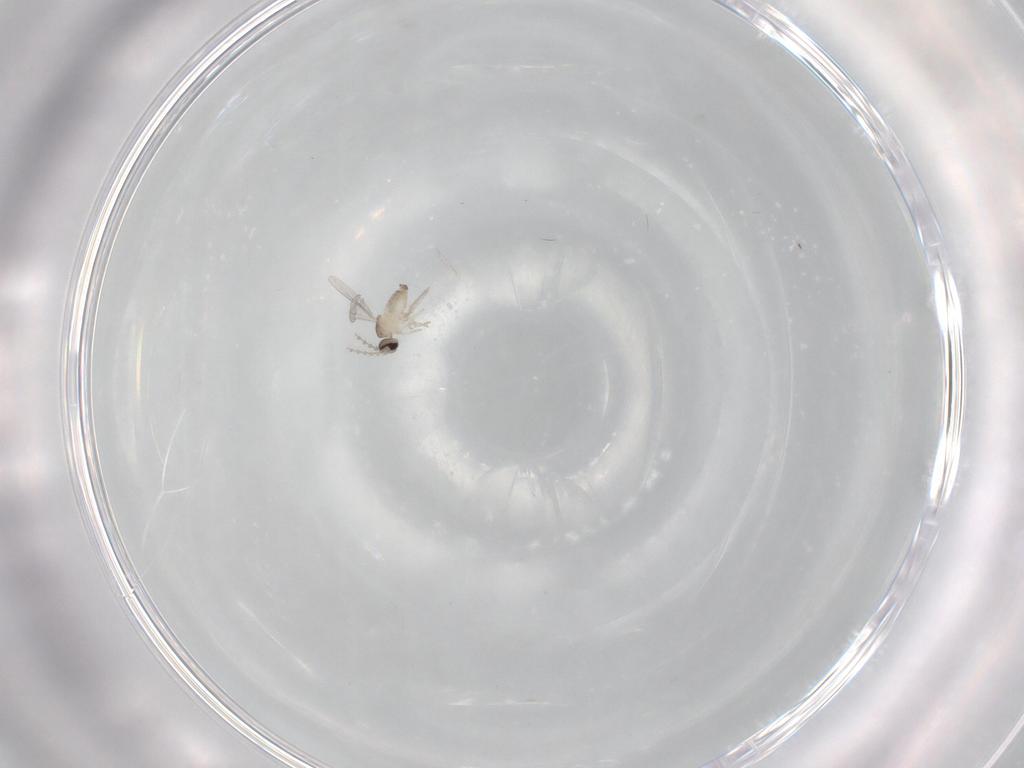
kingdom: Animalia
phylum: Arthropoda
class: Insecta
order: Diptera
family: Cecidomyiidae
